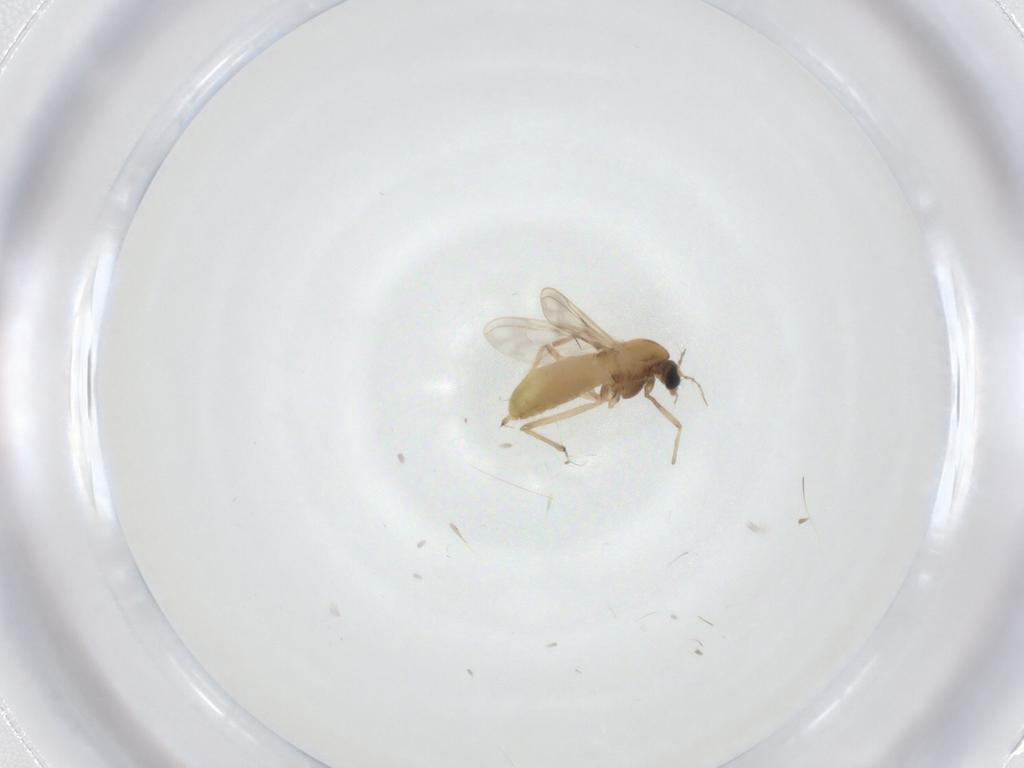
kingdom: Animalia
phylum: Arthropoda
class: Insecta
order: Diptera
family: Chironomidae
